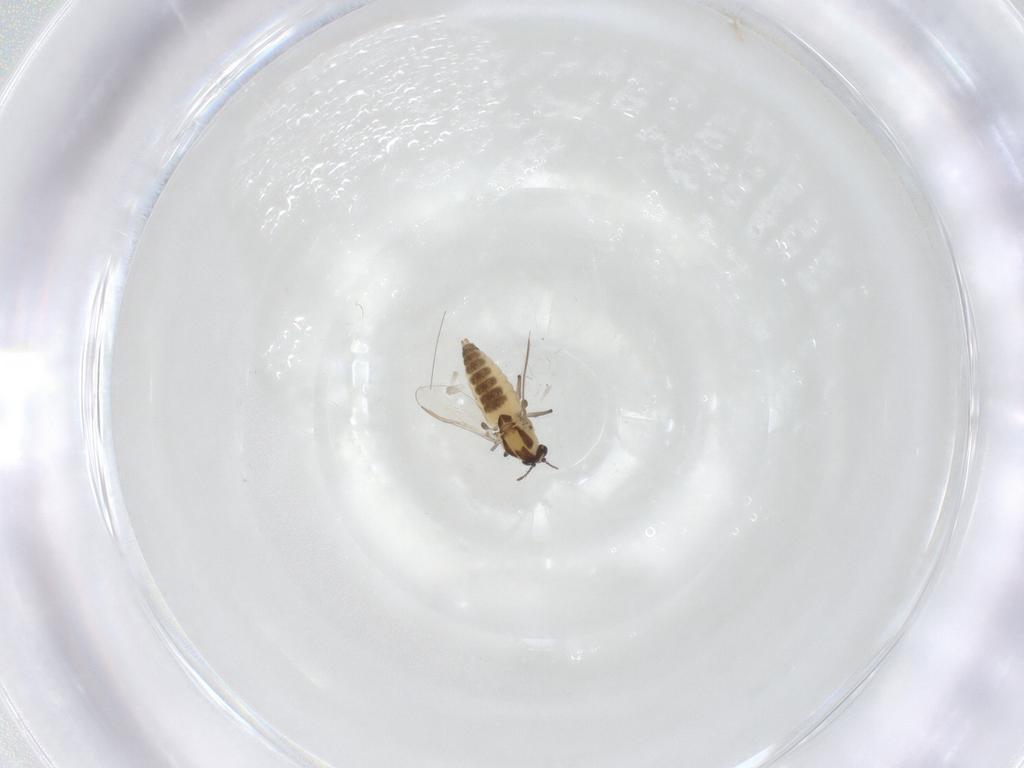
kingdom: Animalia
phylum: Arthropoda
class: Insecta
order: Diptera
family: Chironomidae
